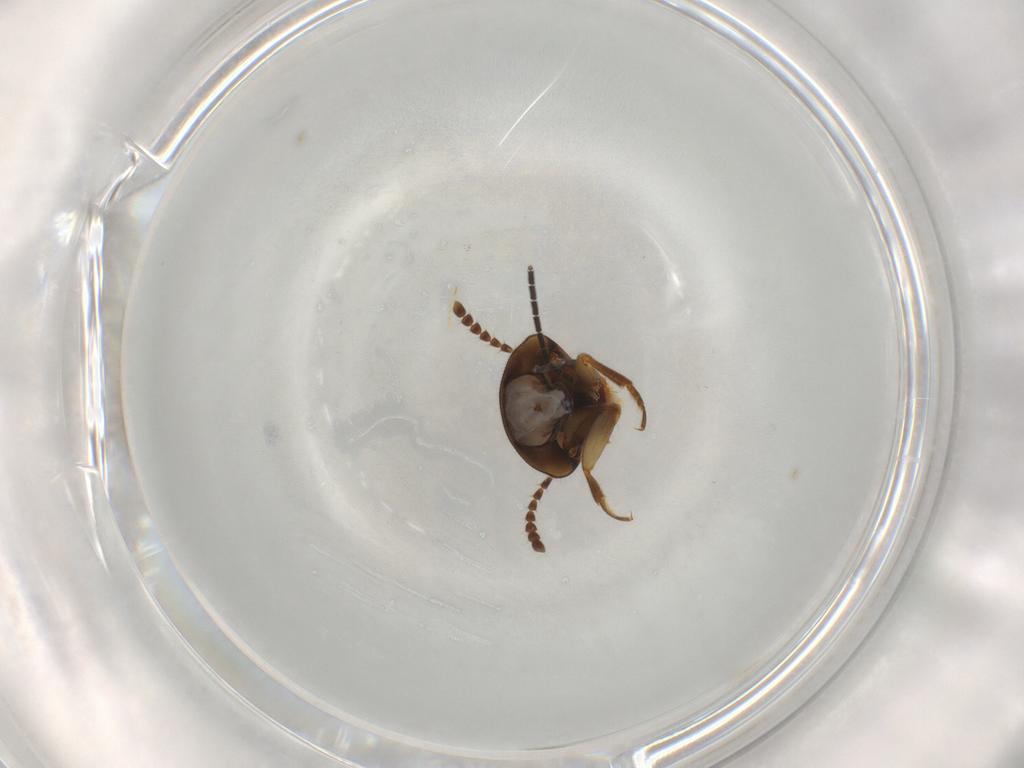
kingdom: Animalia
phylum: Arthropoda
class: Insecta
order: Coleoptera
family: Staphylinidae
